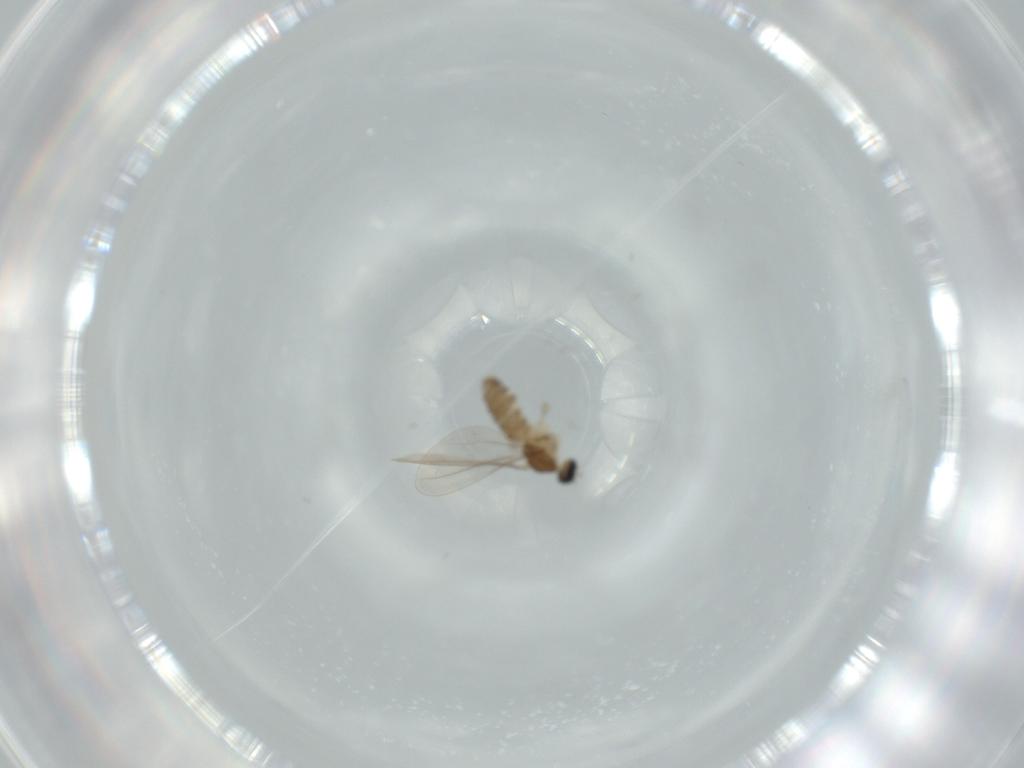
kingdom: Animalia
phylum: Arthropoda
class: Insecta
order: Diptera
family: Cecidomyiidae
